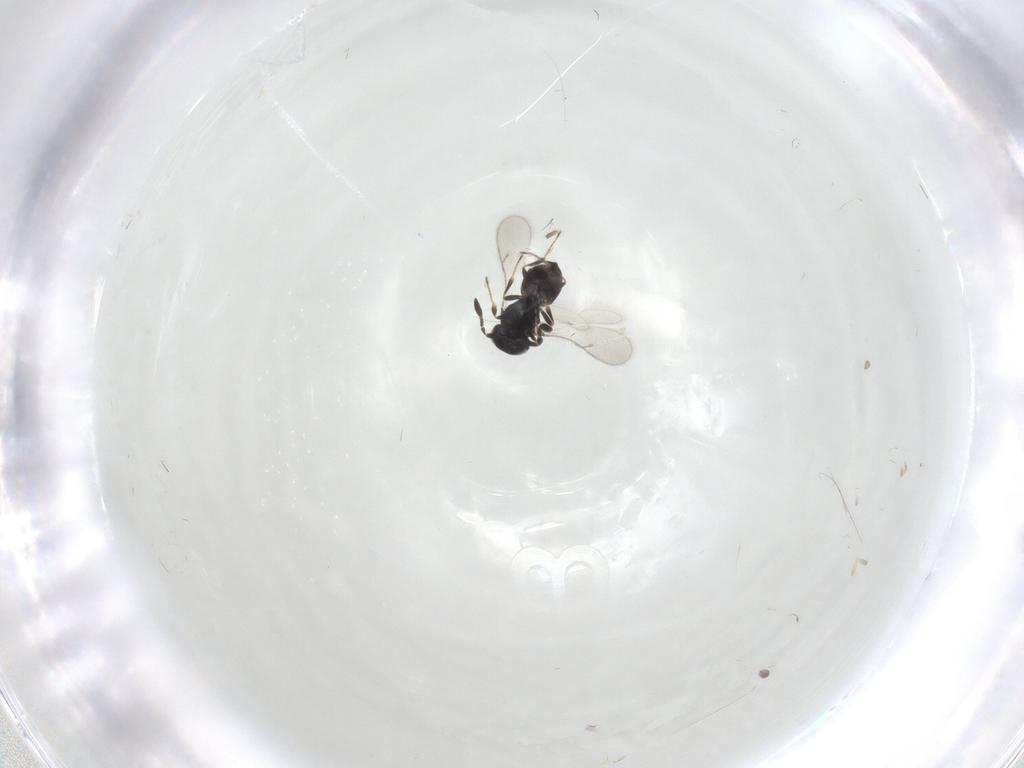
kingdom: Animalia
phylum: Arthropoda
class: Insecta
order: Hymenoptera
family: Scelionidae
